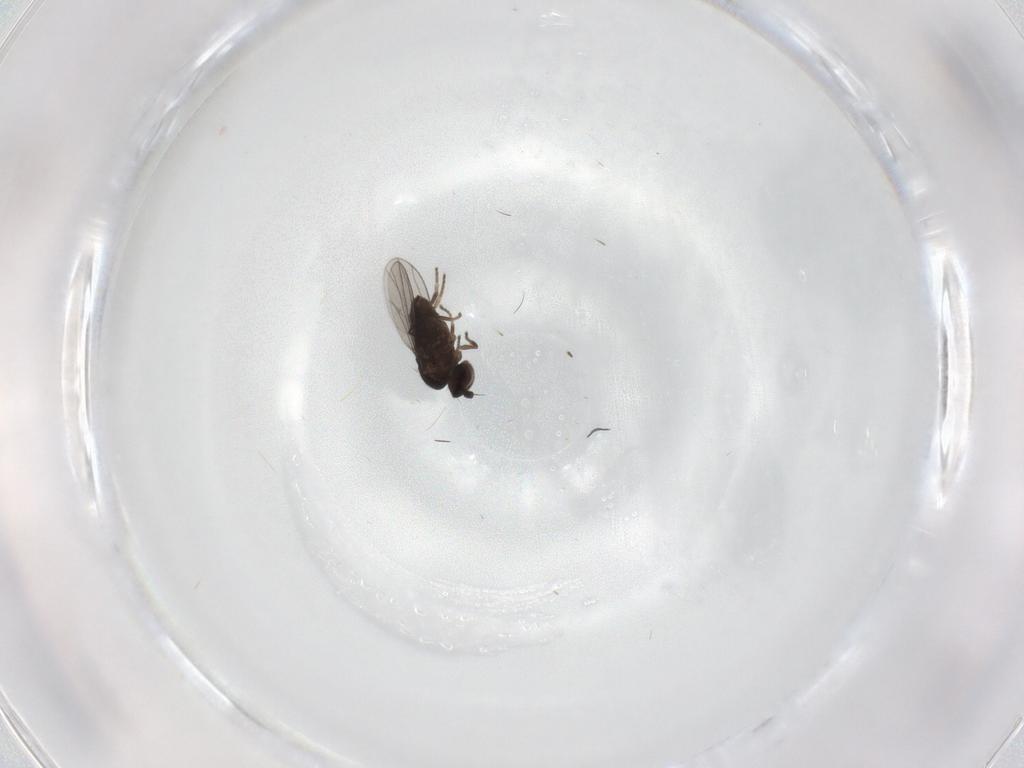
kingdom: Animalia
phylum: Arthropoda
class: Insecta
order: Diptera
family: Dolichopodidae
